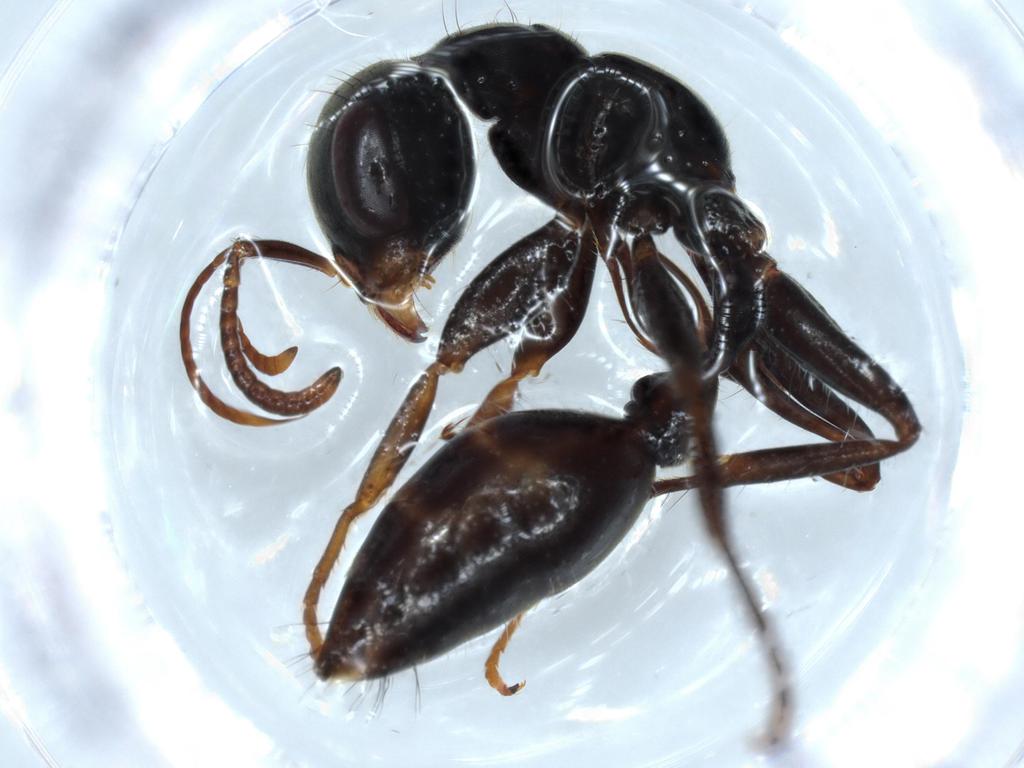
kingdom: Animalia
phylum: Arthropoda
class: Insecta
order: Hymenoptera
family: Formicidae
